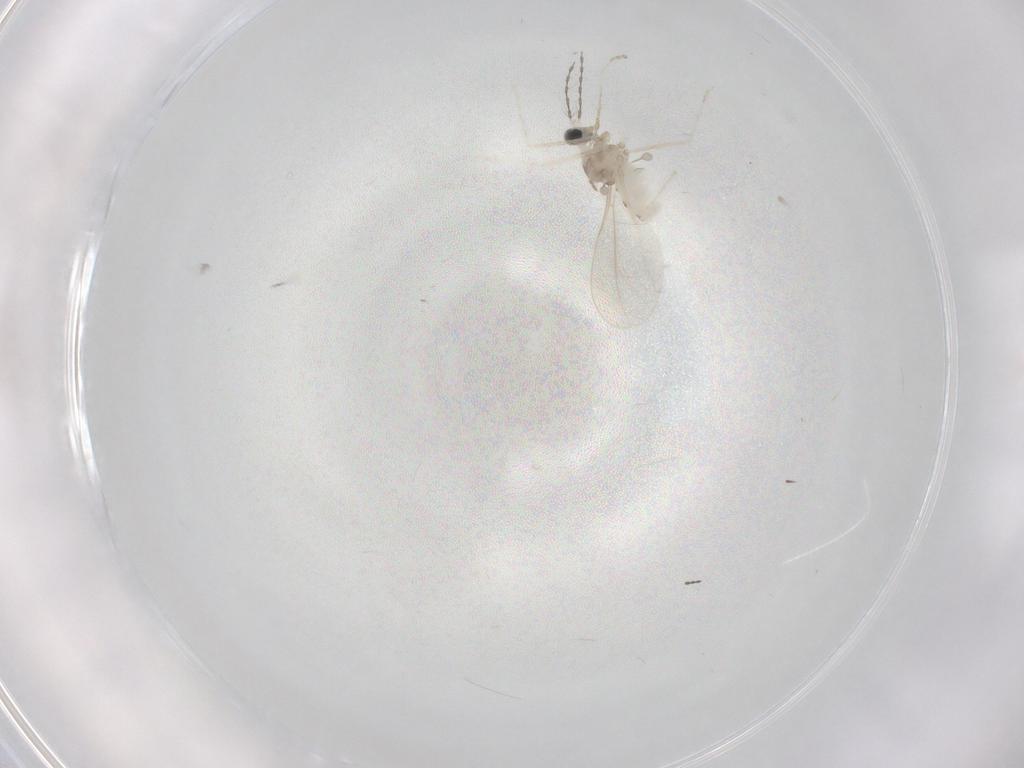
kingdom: Animalia
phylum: Arthropoda
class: Insecta
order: Diptera
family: Cecidomyiidae
